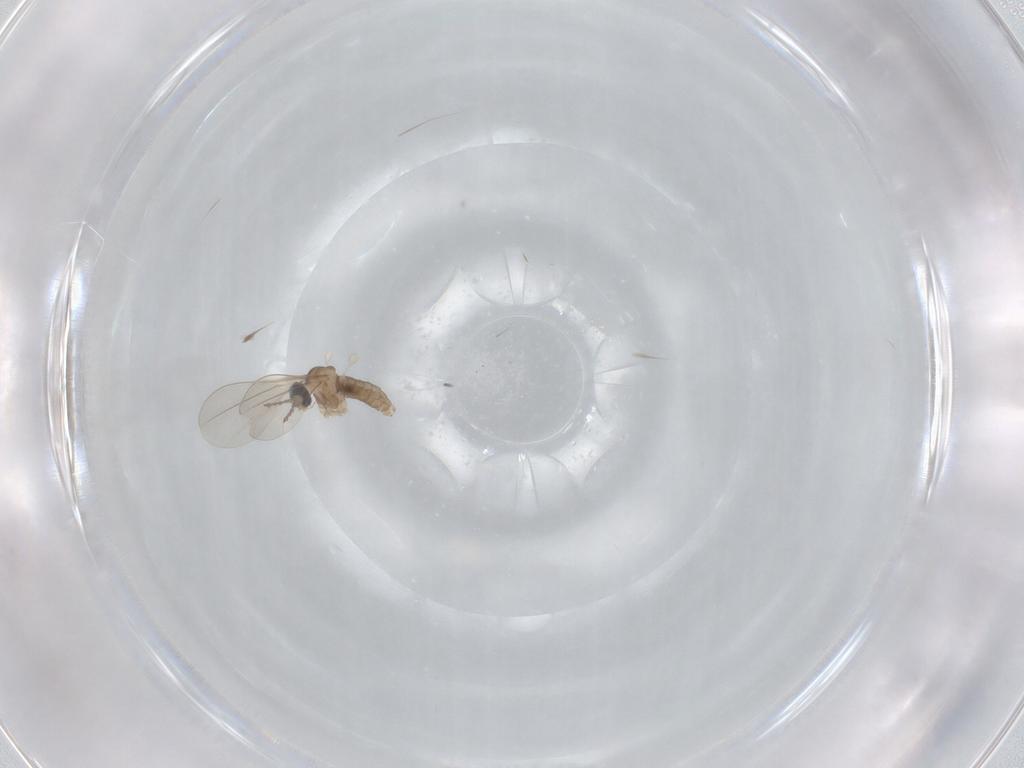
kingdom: Animalia
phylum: Arthropoda
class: Insecta
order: Diptera
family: Cecidomyiidae
